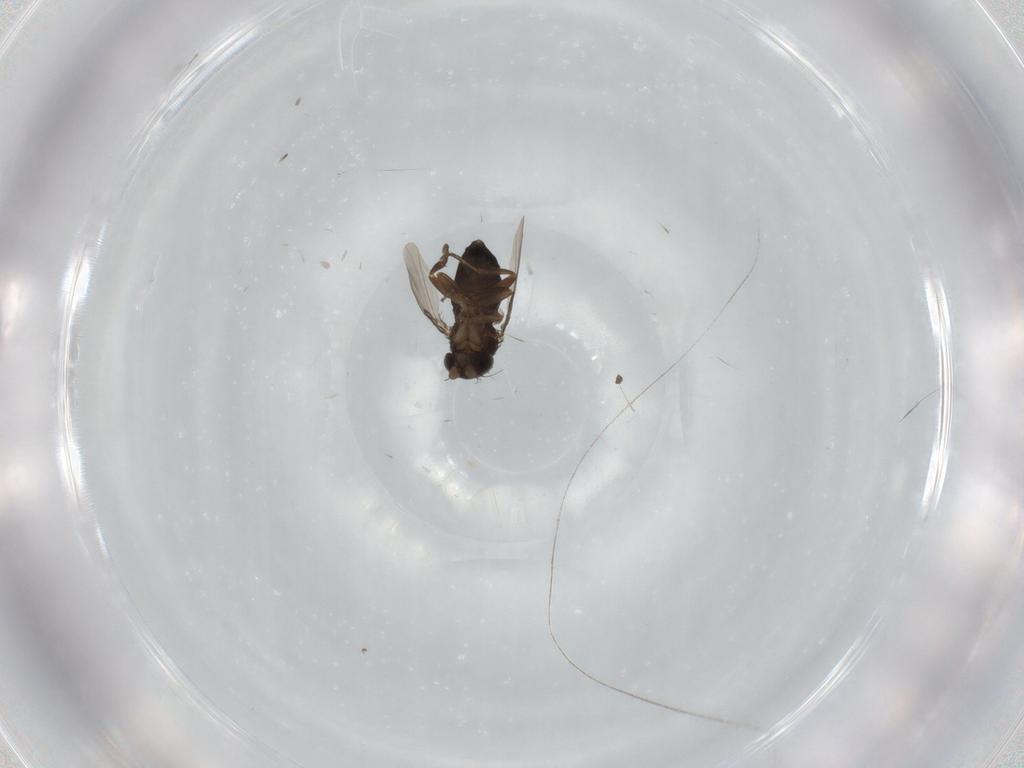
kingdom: Animalia
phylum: Arthropoda
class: Insecta
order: Diptera
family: Phoridae
